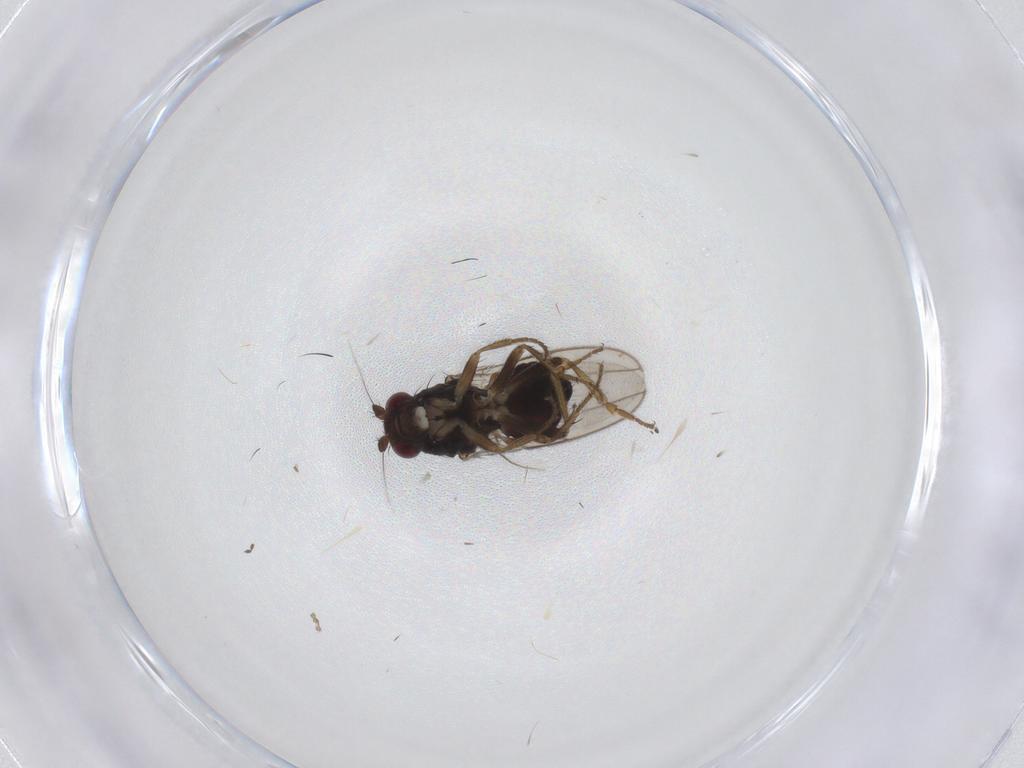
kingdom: Animalia
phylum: Arthropoda
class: Insecta
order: Diptera
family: Sphaeroceridae
